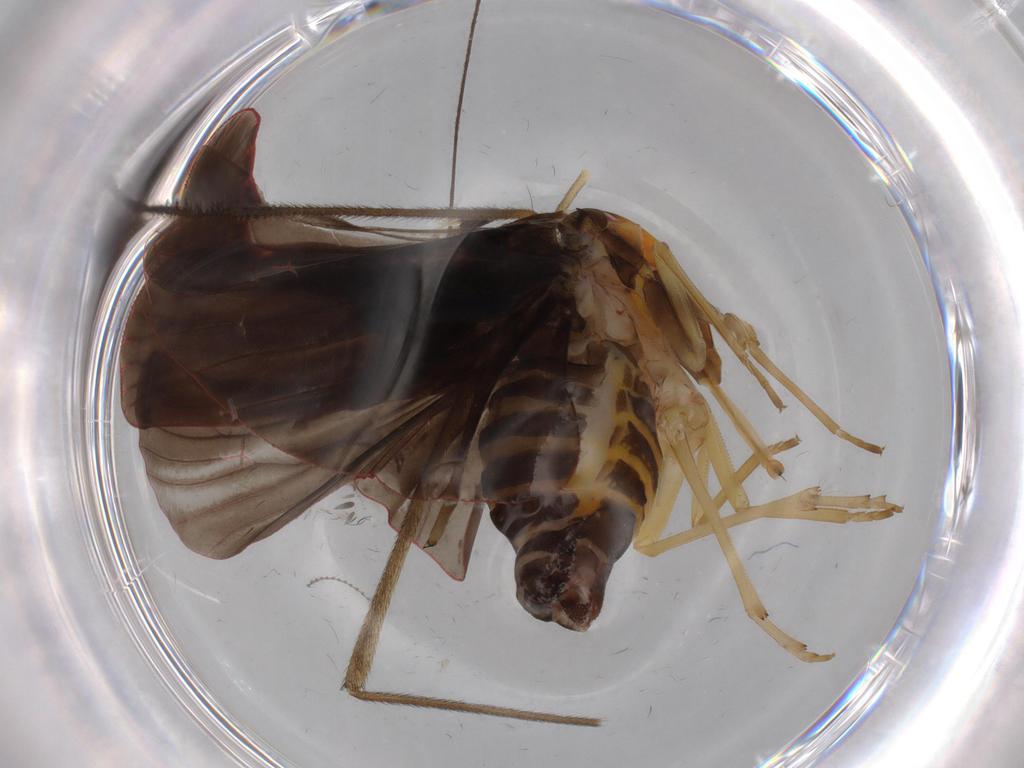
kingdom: Animalia
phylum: Arthropoda
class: Insecta
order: Hemiptera
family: Derbidae
